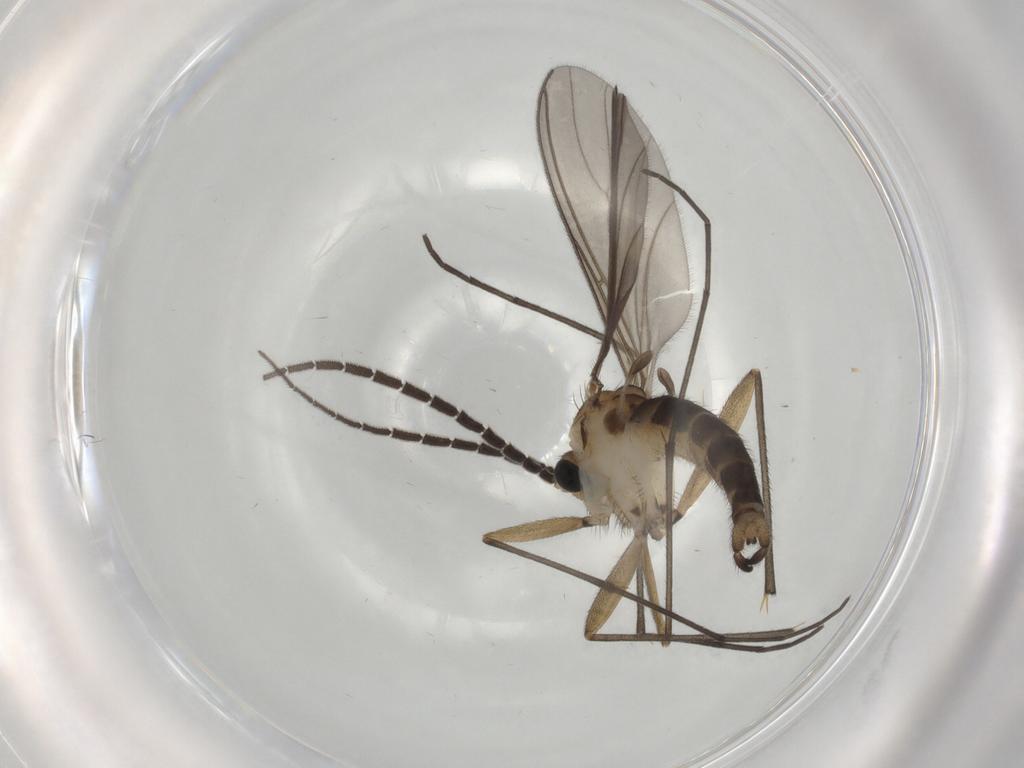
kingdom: Animalia
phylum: Arthropoda
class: Insecta
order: Diptera
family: Sciaridae
